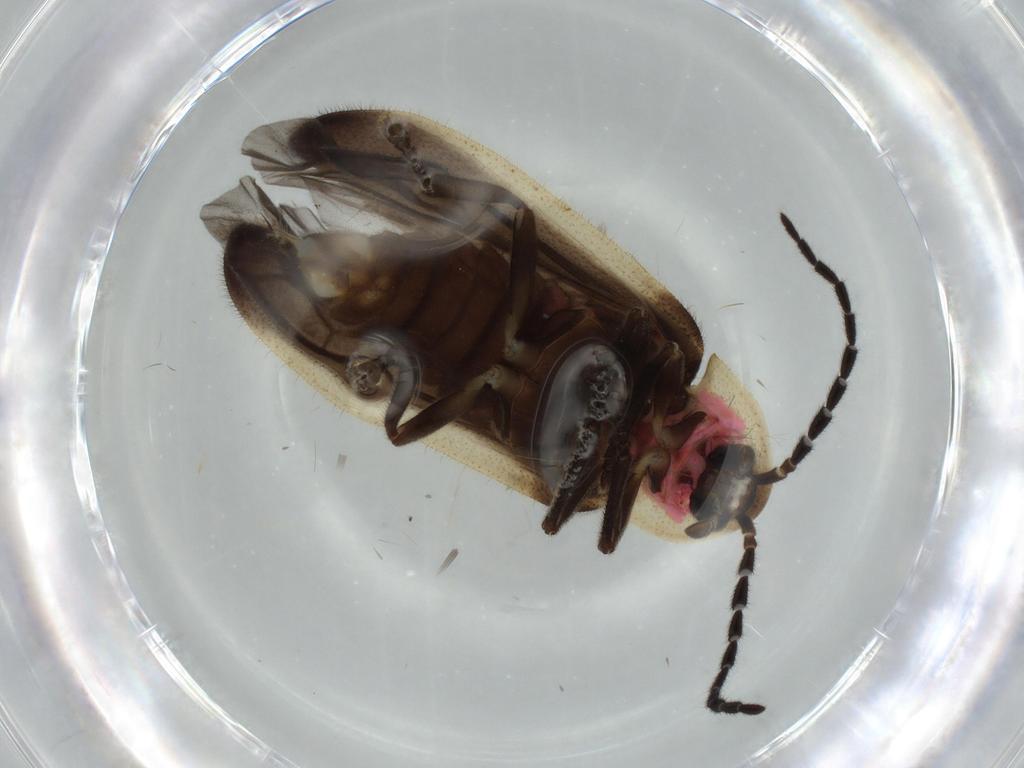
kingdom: Animalia
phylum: Arthropoda
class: Insecta
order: Coleoptera
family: Lampyridae
